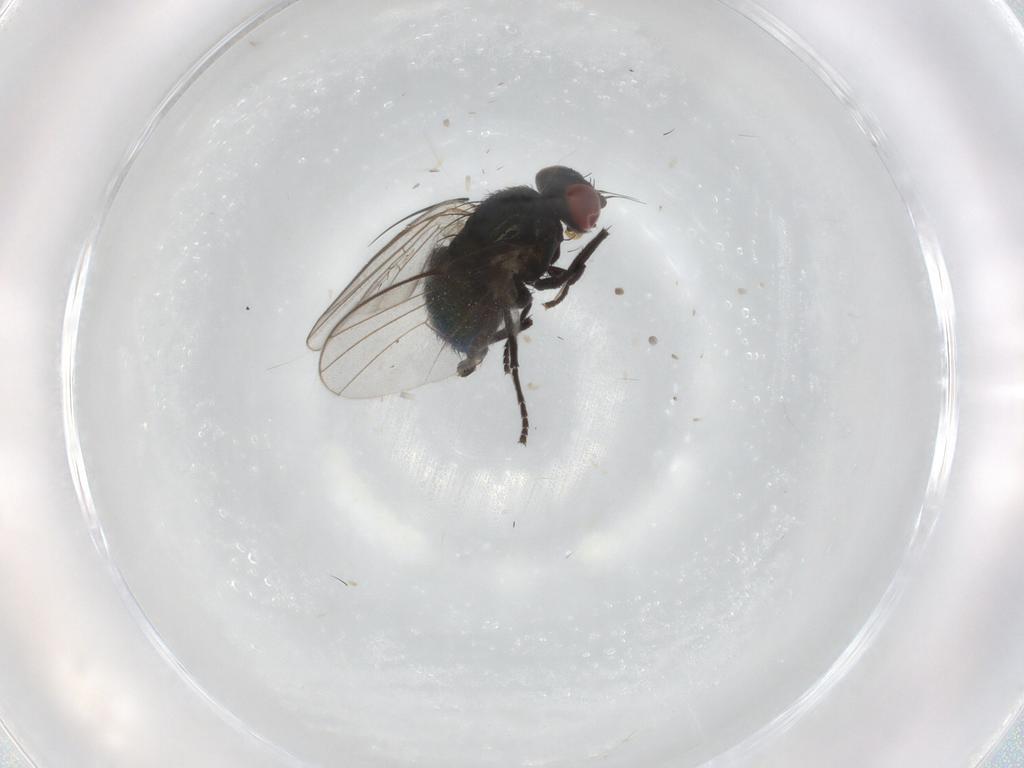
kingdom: Animalia
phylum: Arthropoda
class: Insecta
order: Diptera
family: Agromyzidae
